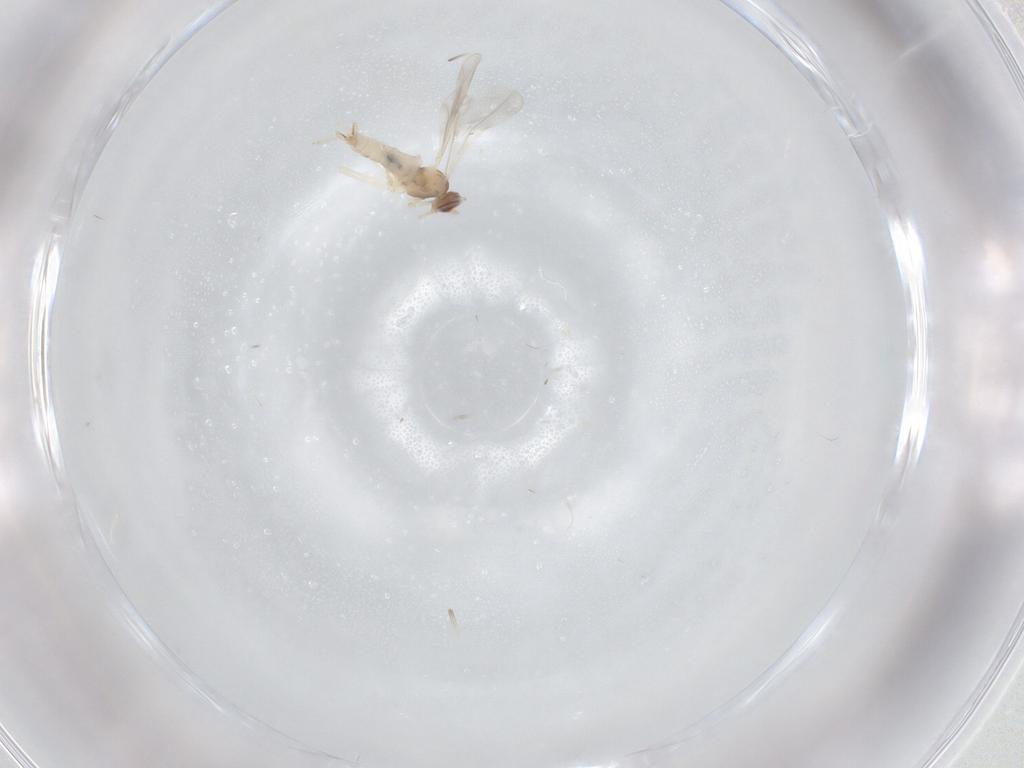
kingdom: Animalia
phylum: Arthropoda
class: Insecta
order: Diptera
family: Cecidomyiidae
